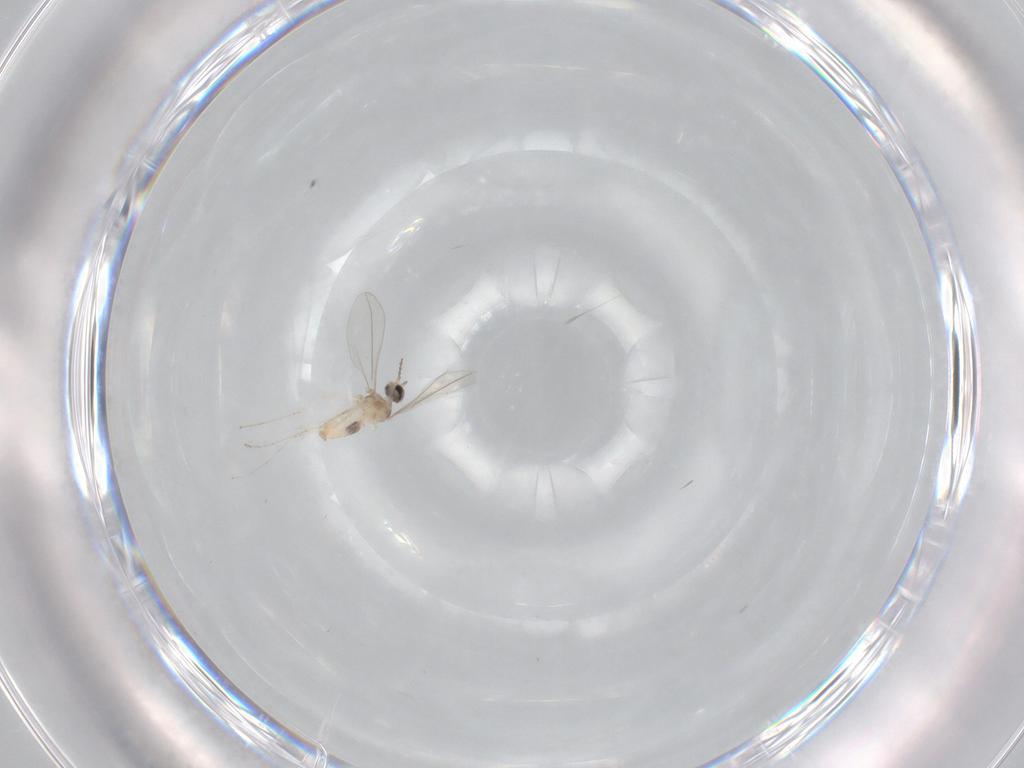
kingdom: Animalia
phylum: Arthropoda
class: Insecta
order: Diptera
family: Cecidomyiidae
